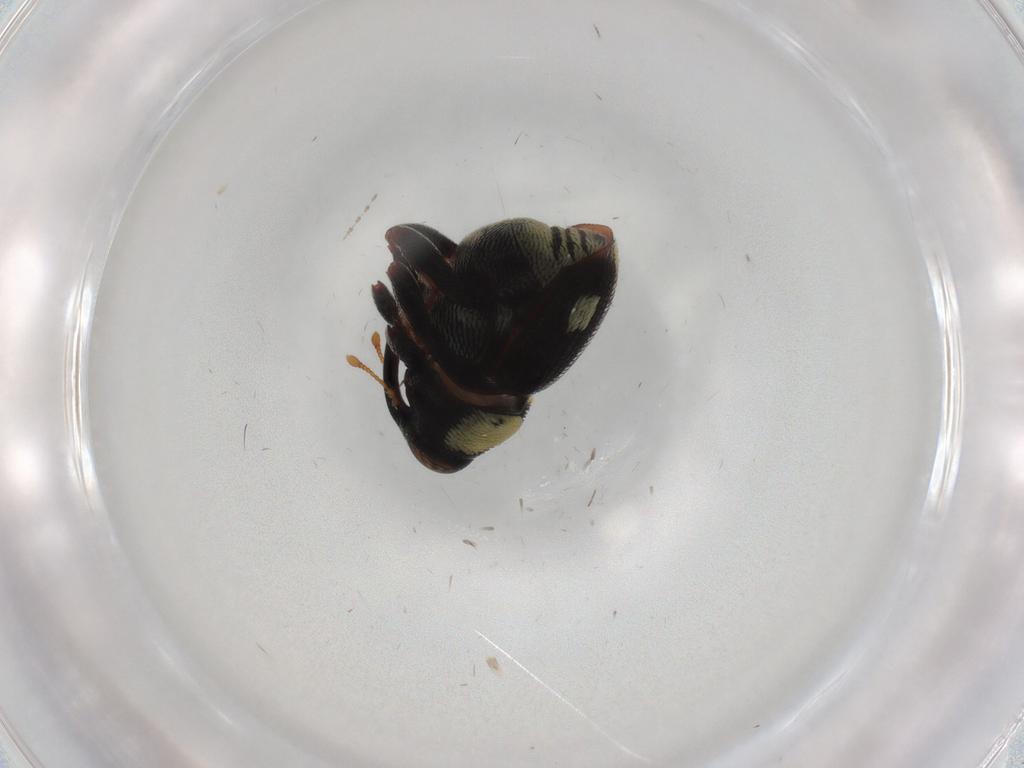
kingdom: Animalia
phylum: Arthropoda
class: Insecta
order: Coleoptera
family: Curculionidae
